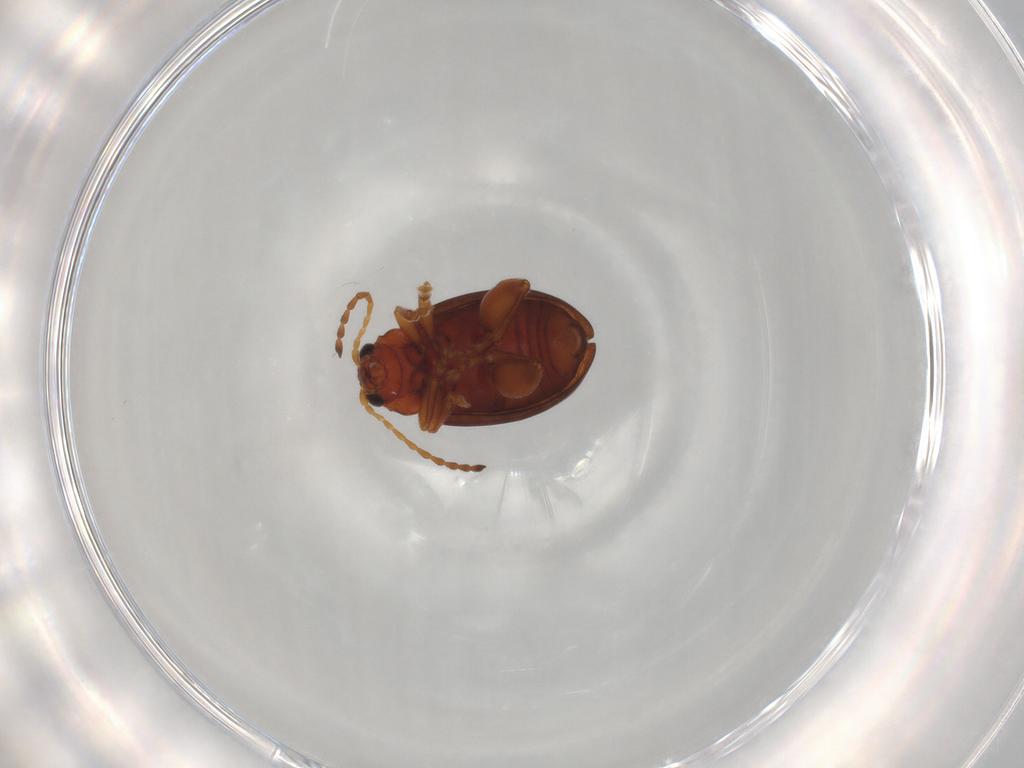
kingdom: Animalia
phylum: Arthropoda
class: Insecta
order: Coleoptera
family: Chrysomelidae
